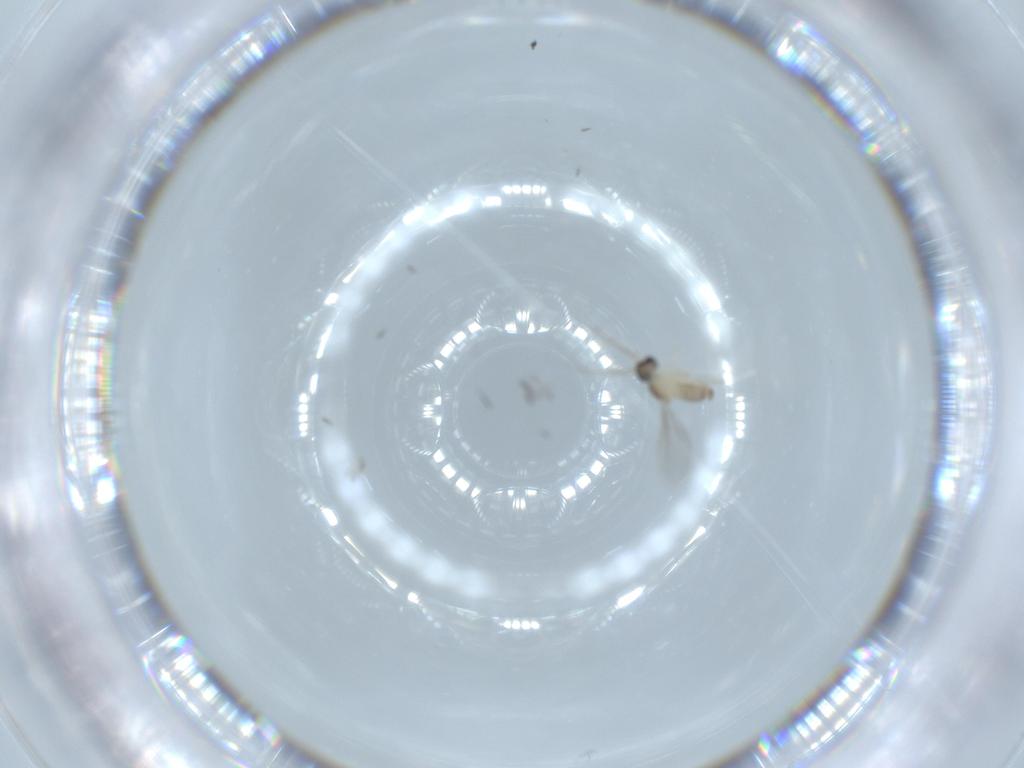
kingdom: Animalia
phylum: Arthropoda
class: Insecta
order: Diptera
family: Cecidomyiidae
